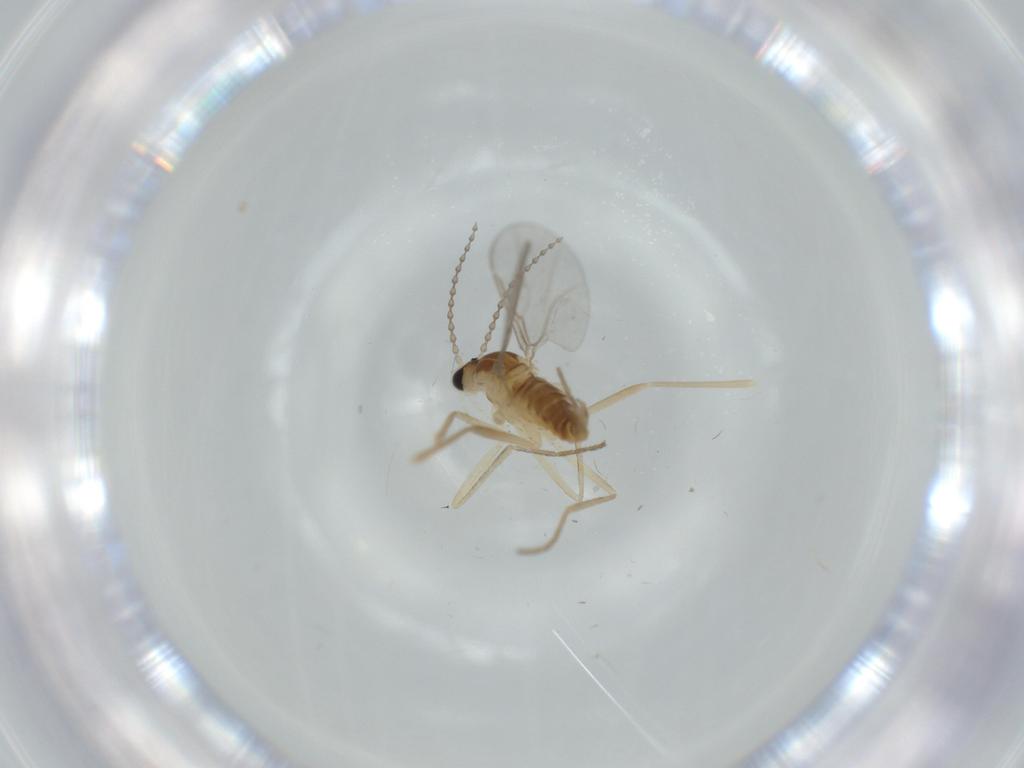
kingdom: Animalia
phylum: Arthropoda
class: Insecta
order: Diptera
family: Cecidomyiidae
